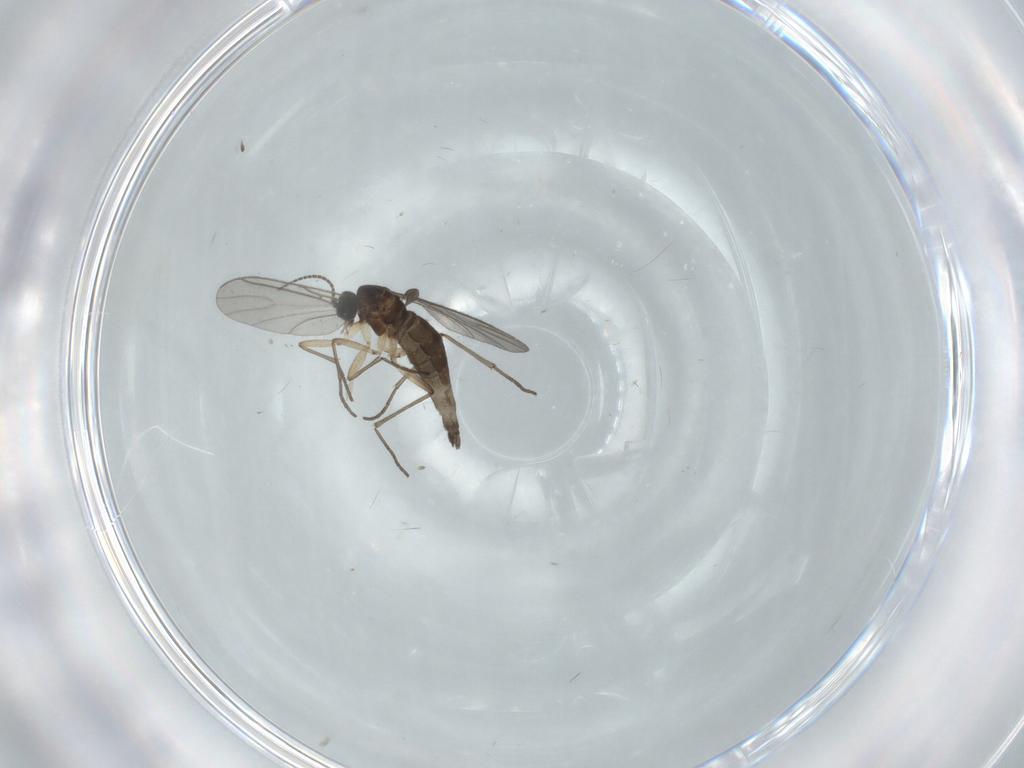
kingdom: Animalia
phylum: Arthropoda
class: Insecta
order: Diptera
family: Sciaridae
